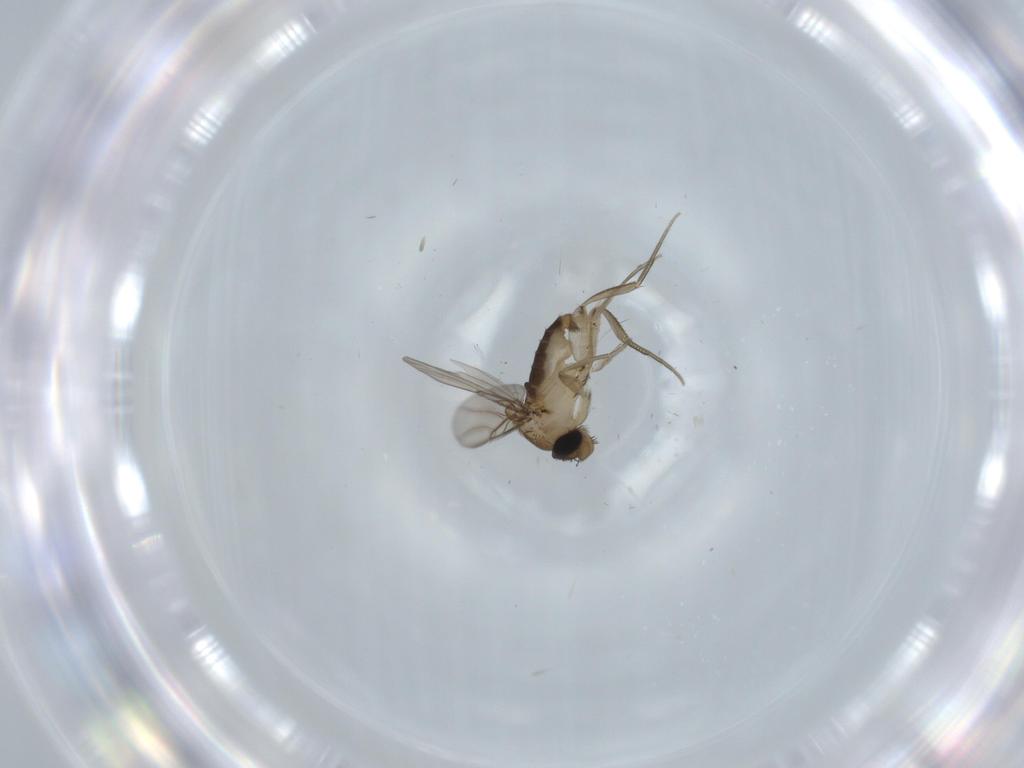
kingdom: Animalia
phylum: Arthropoda
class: Insecta
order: Diptera
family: Phoridae
